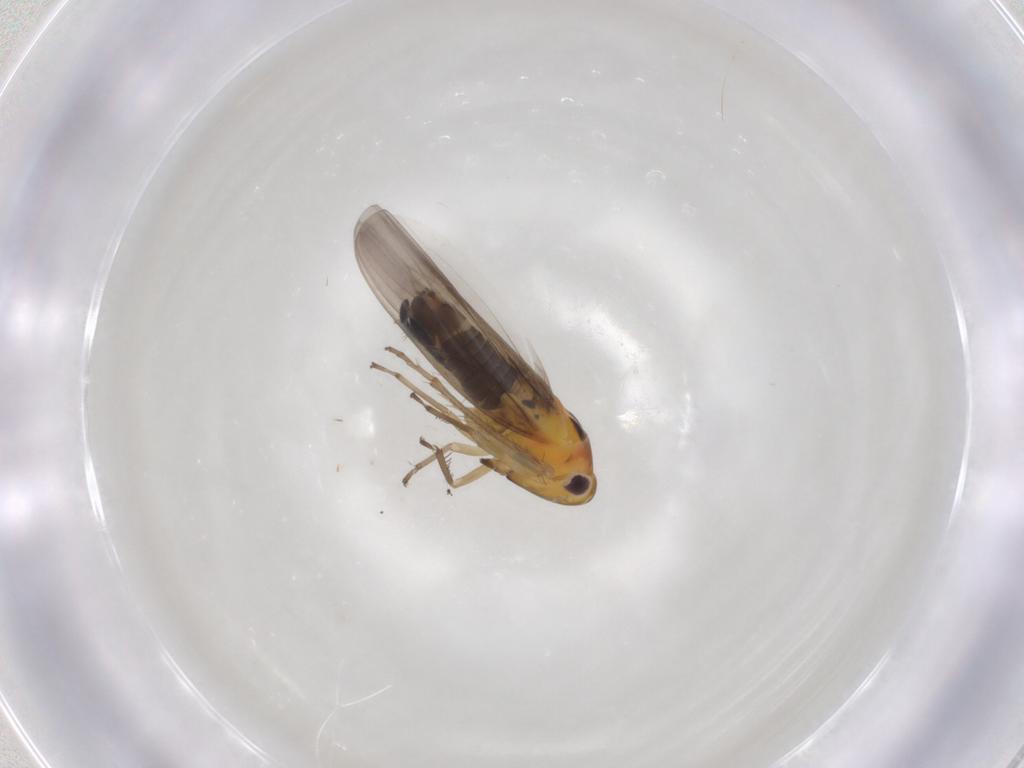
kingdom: Animalia
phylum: Arthropoda
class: Insecta
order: Hemiptera
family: Cicadellidae
